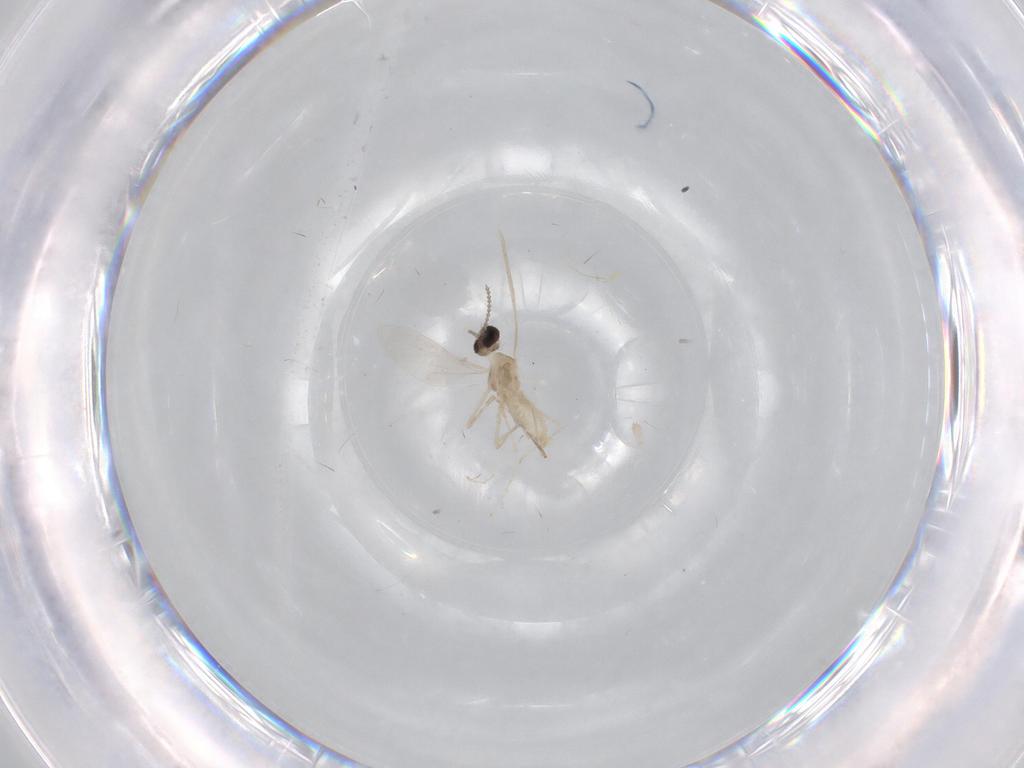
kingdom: Animalia
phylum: Arthropoda
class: Insecta
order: Diptera
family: Cecidomyiidae
